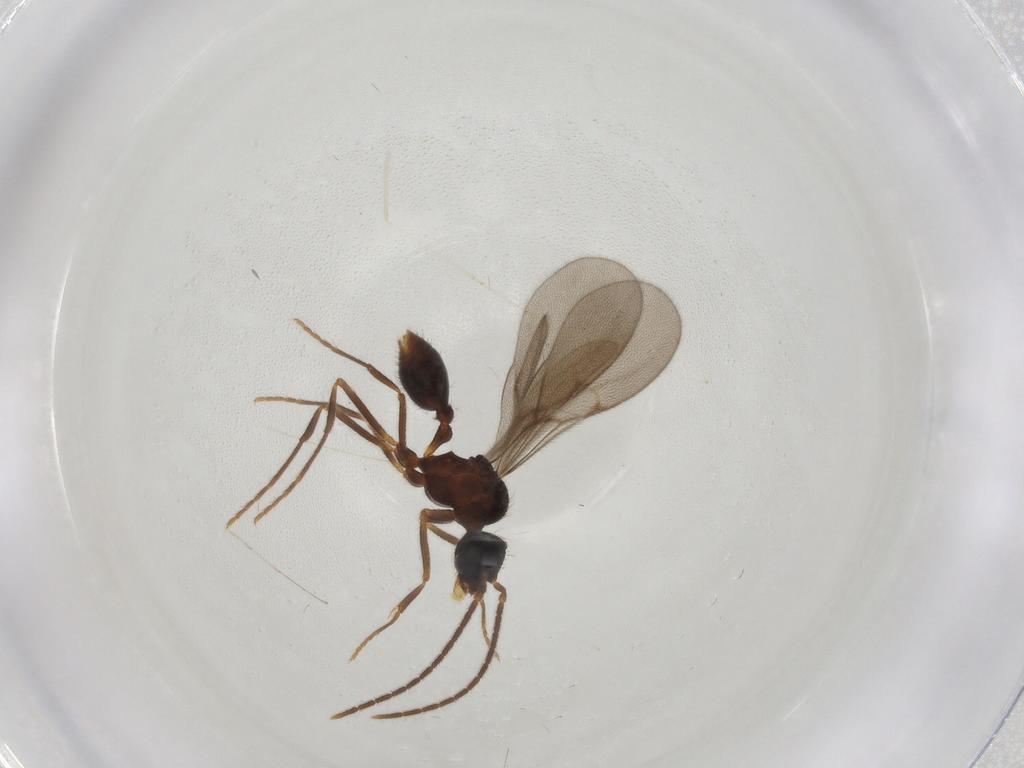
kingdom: Animalia
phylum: Arthropoda
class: Insecta
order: Hymenoptera
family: Formicidae
